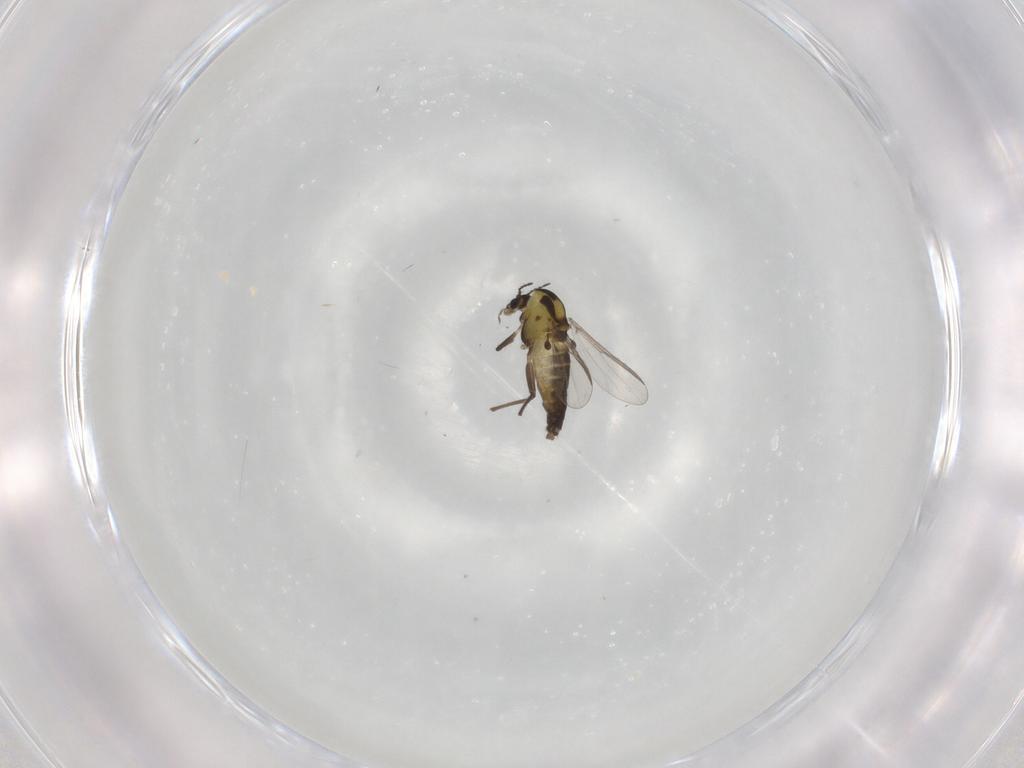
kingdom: Animalia
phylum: Arthropoda
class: Insecta
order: Diptera
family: Chironomidae
